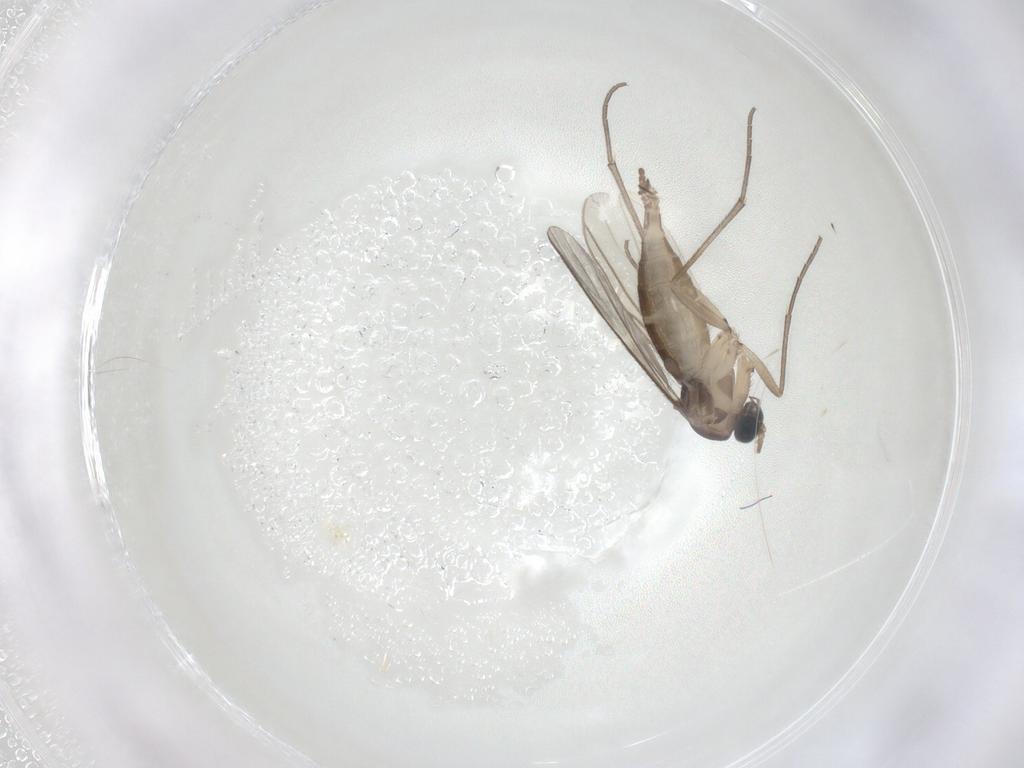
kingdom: Animalia
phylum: Arthropoda
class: Insecta
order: Diptera
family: Sciaridae
